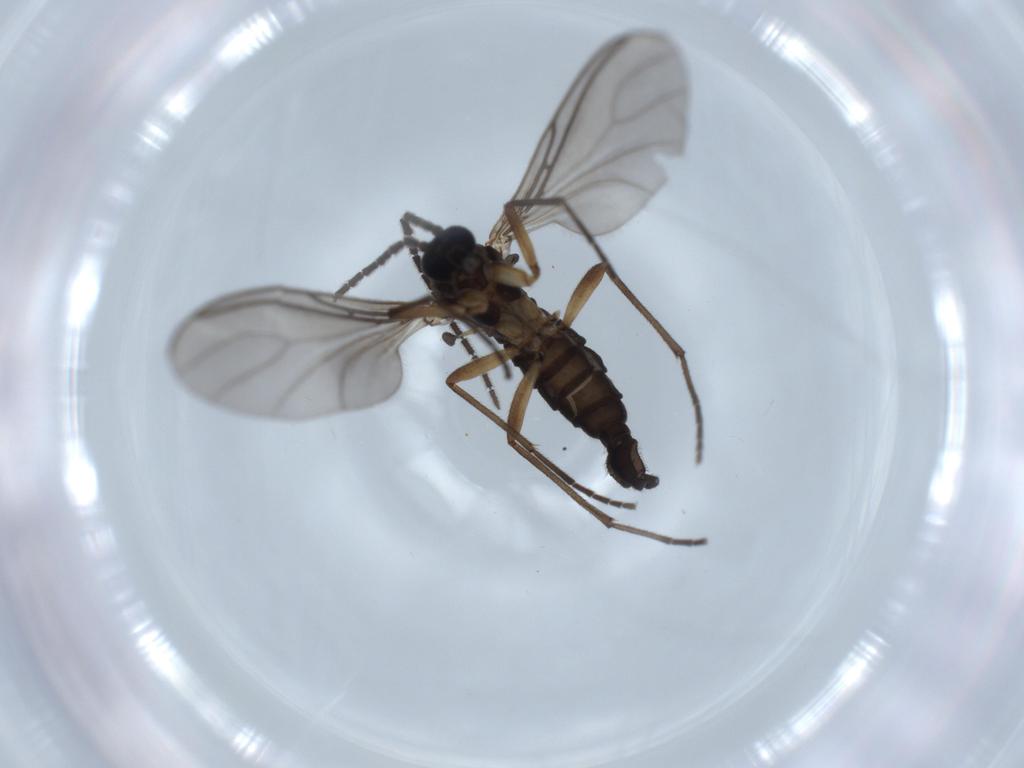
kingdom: Animalia
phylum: Arthropoda
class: Insecta
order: Diptera
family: Sciaridae
